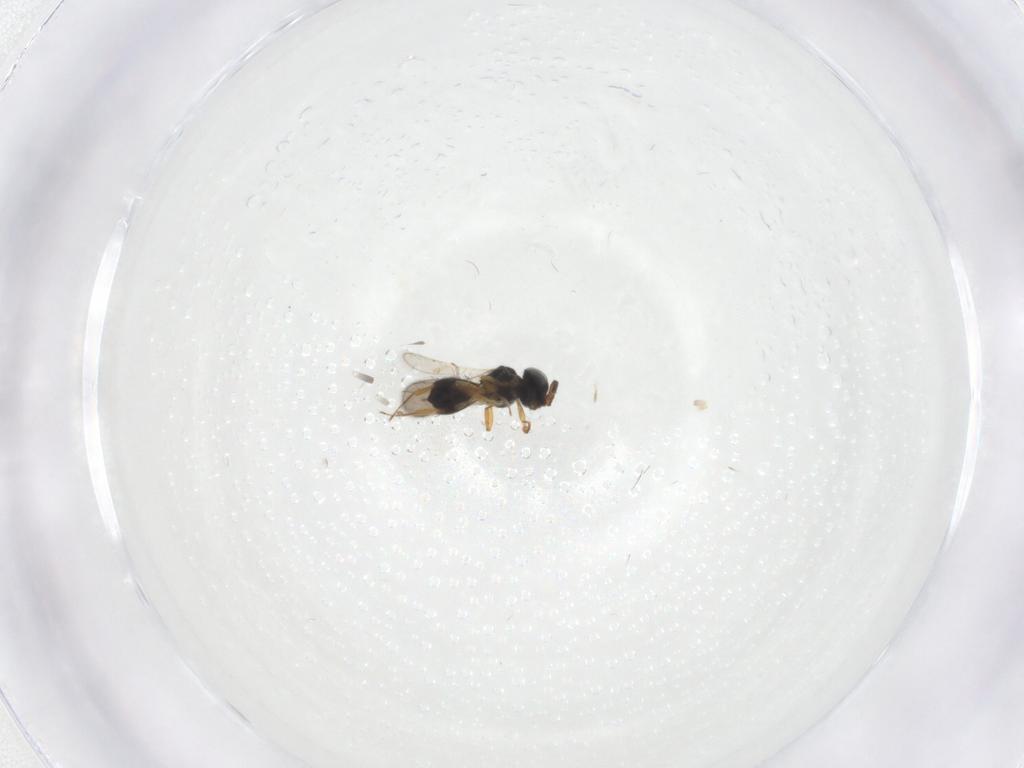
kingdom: Animalia
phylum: Arthropoda
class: Insecta
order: Hymenoptera
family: Scelionidae
